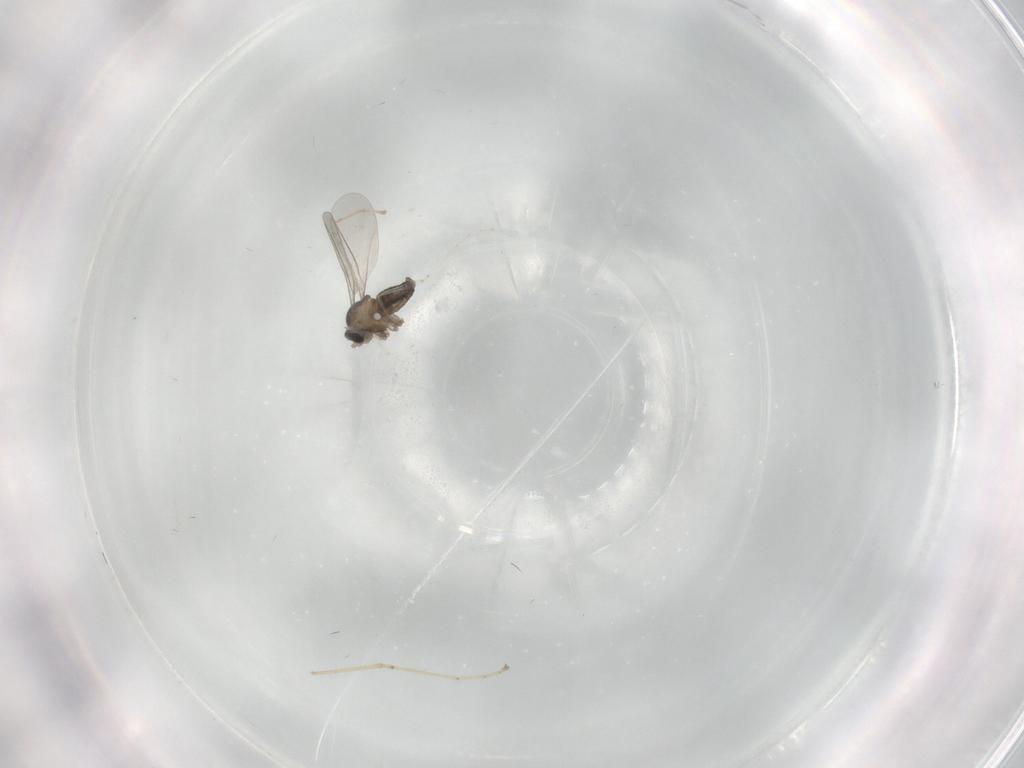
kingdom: Animalia
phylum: Arthropoda
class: Insecta
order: Diptera
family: Cecidomyiidae
